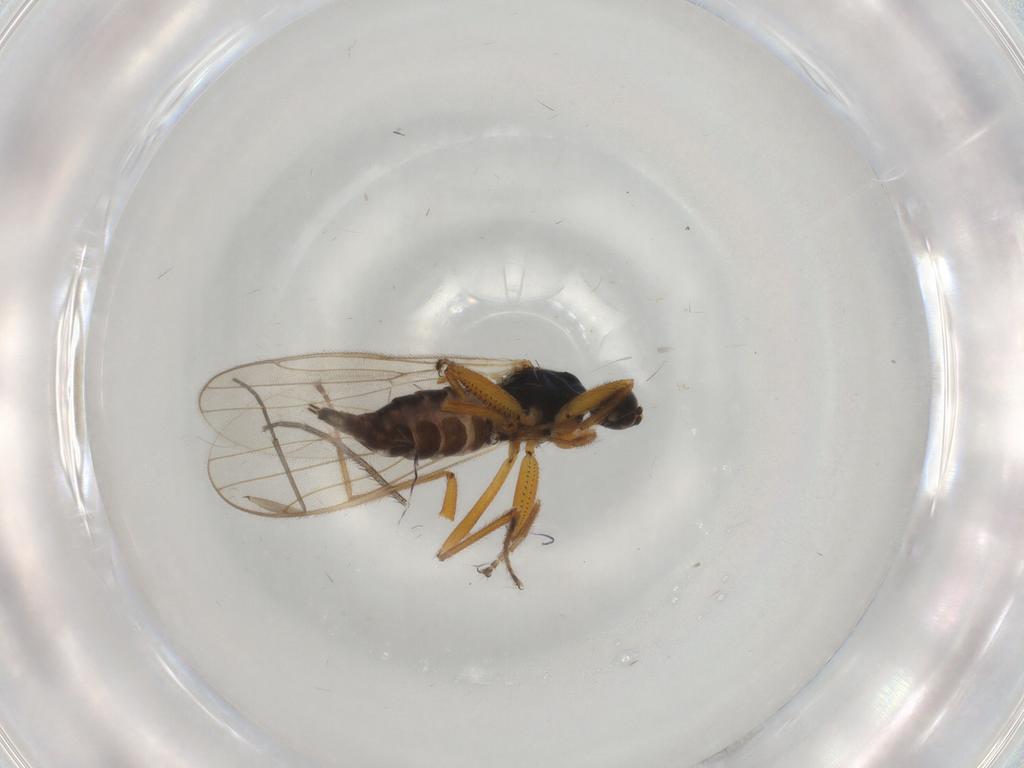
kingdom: Animalia
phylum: Arthropoda
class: Insecta
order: Diptera
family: Hybotidae
